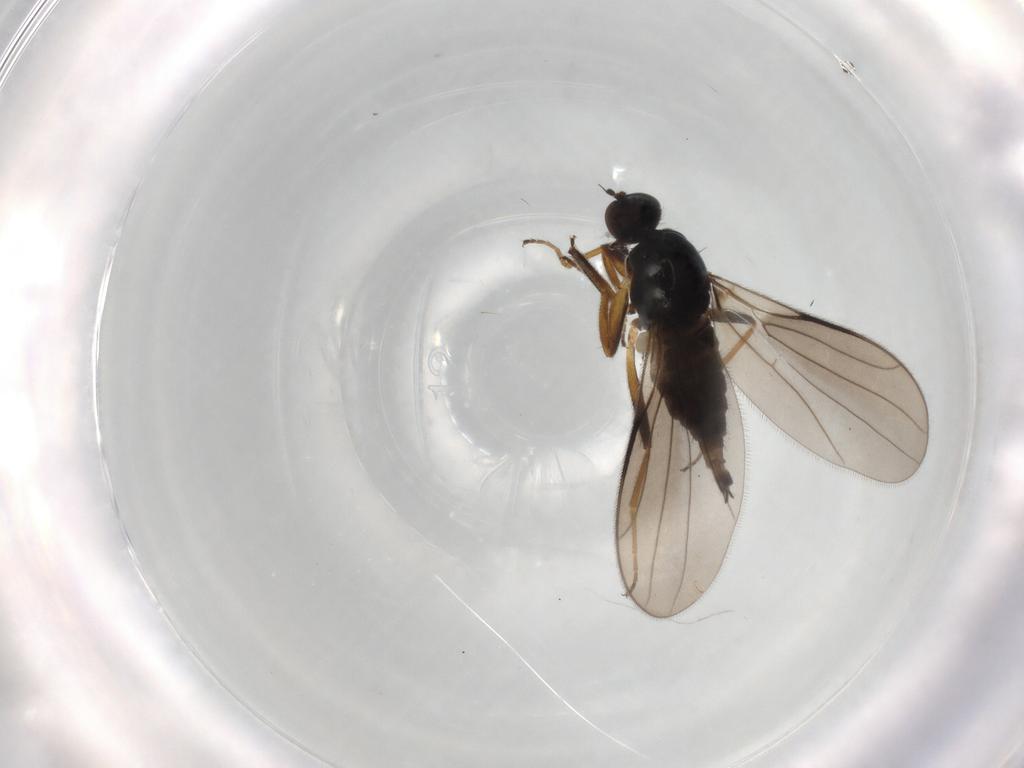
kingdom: Animalia
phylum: Arthropoda
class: Insecta
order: Diptera
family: Hybotidae
